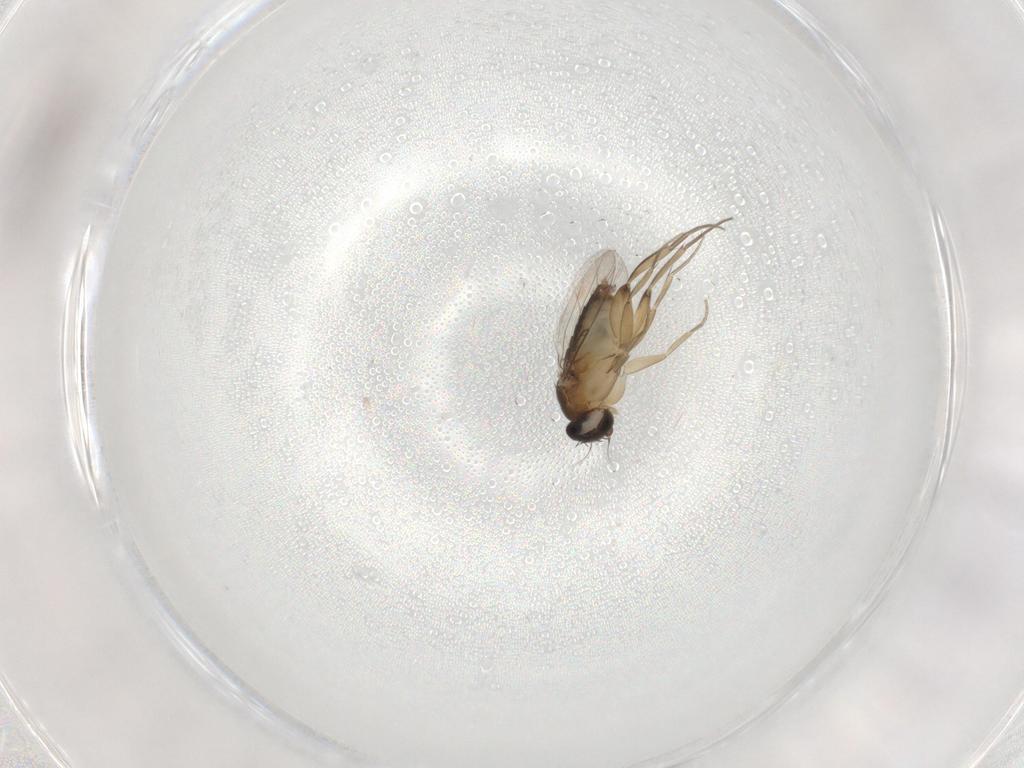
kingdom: Animalia
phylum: Arthropoda
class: Insecta
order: Diptera
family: Phoridae
